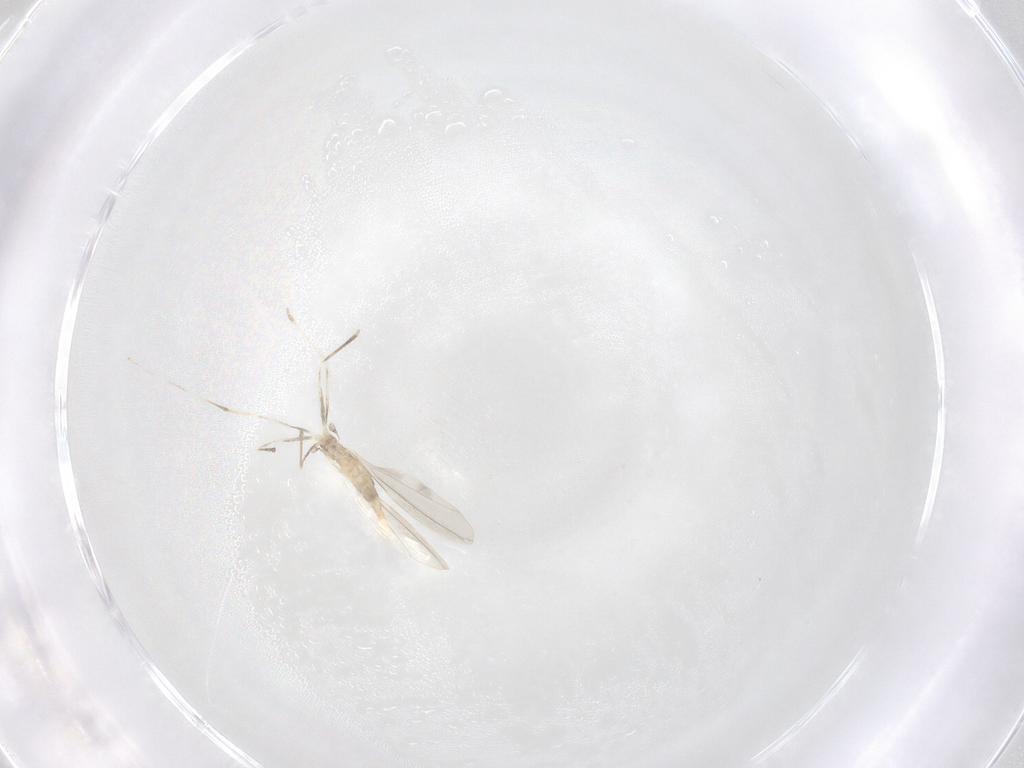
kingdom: Animalia
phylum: Arthropoda
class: Insecta
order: Diptera
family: Cecidomyiidae
